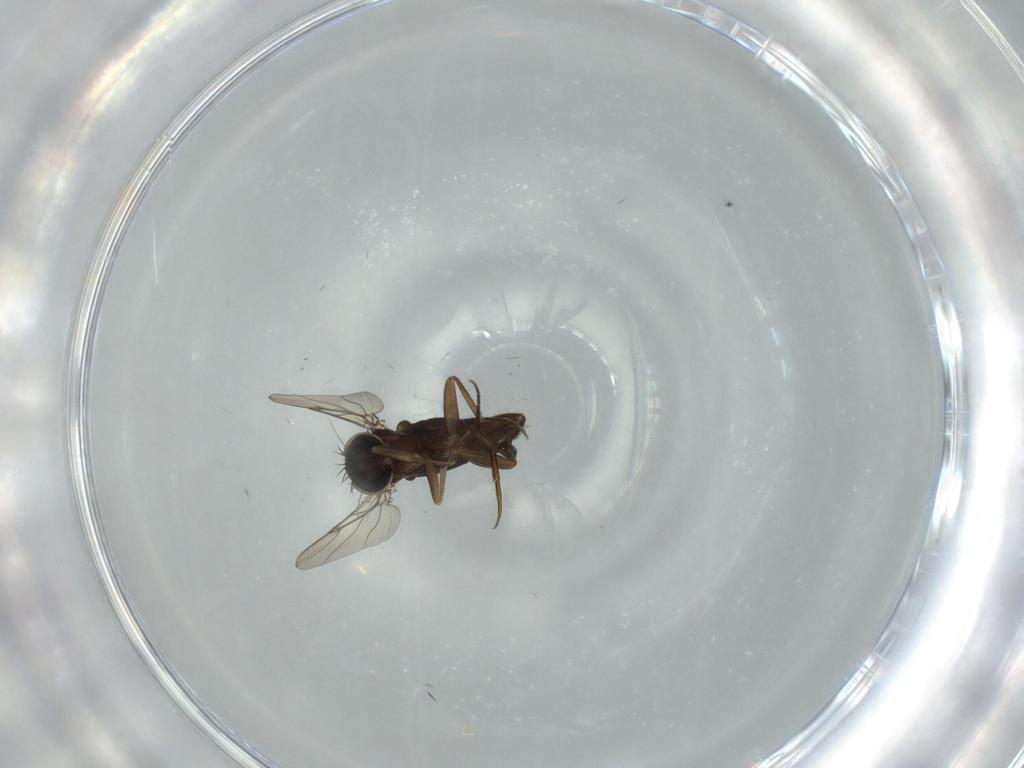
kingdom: Animalia
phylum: Arthropoda
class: Insecta
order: Diptera
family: Phoridae
